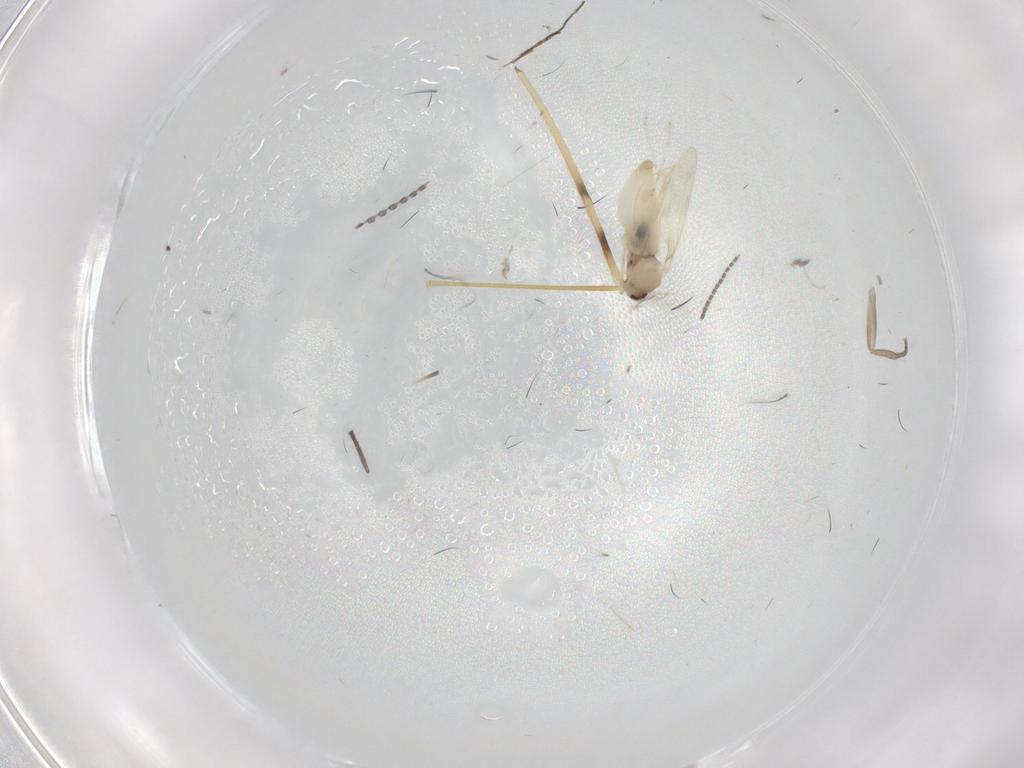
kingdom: Animalia
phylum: Arthropoda
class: Insecta
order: Diptera
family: Cecidomyiidae
